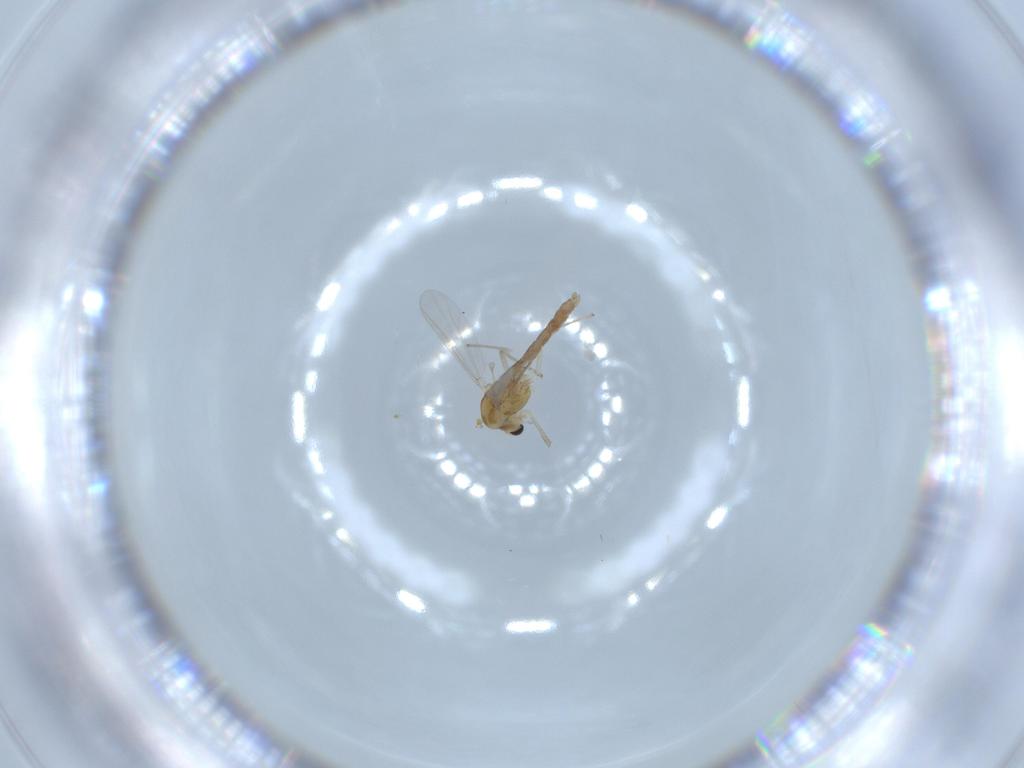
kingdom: Animalia
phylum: Arthropoda
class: Insecta
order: Diptera
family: Chironomidae
